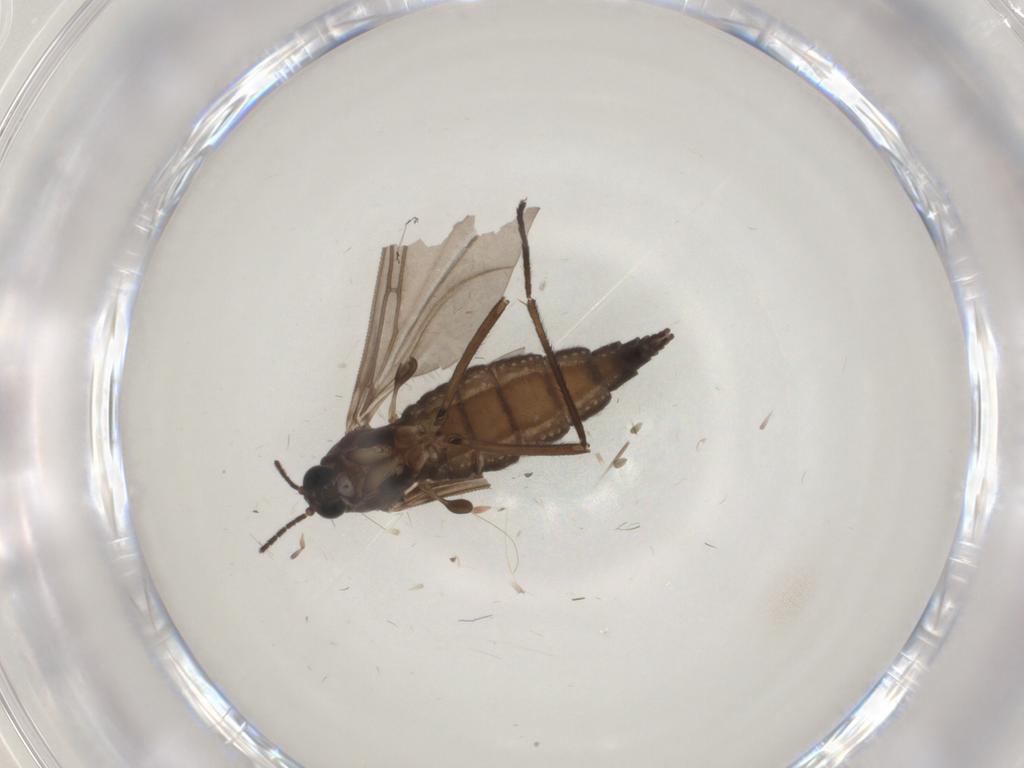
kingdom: Animalia
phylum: Arthropoda
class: Insecta
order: Diptera
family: Sciaridae
